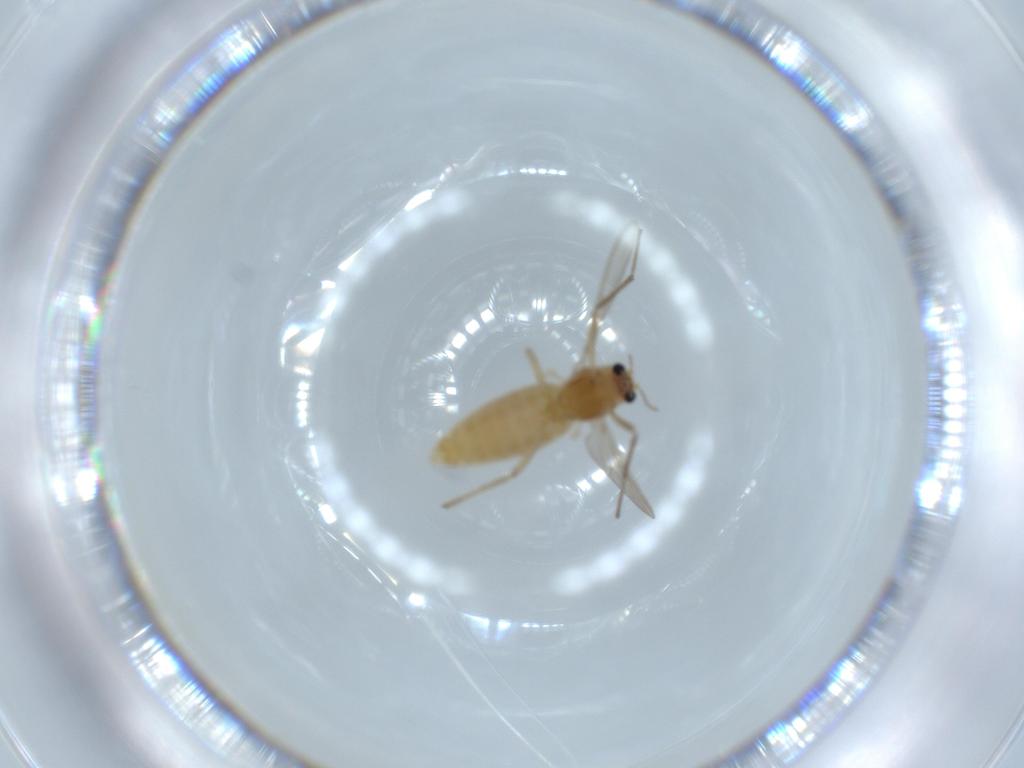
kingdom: Animalia
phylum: Arthropoda
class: Insecta
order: Diptera
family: Chironomidae
